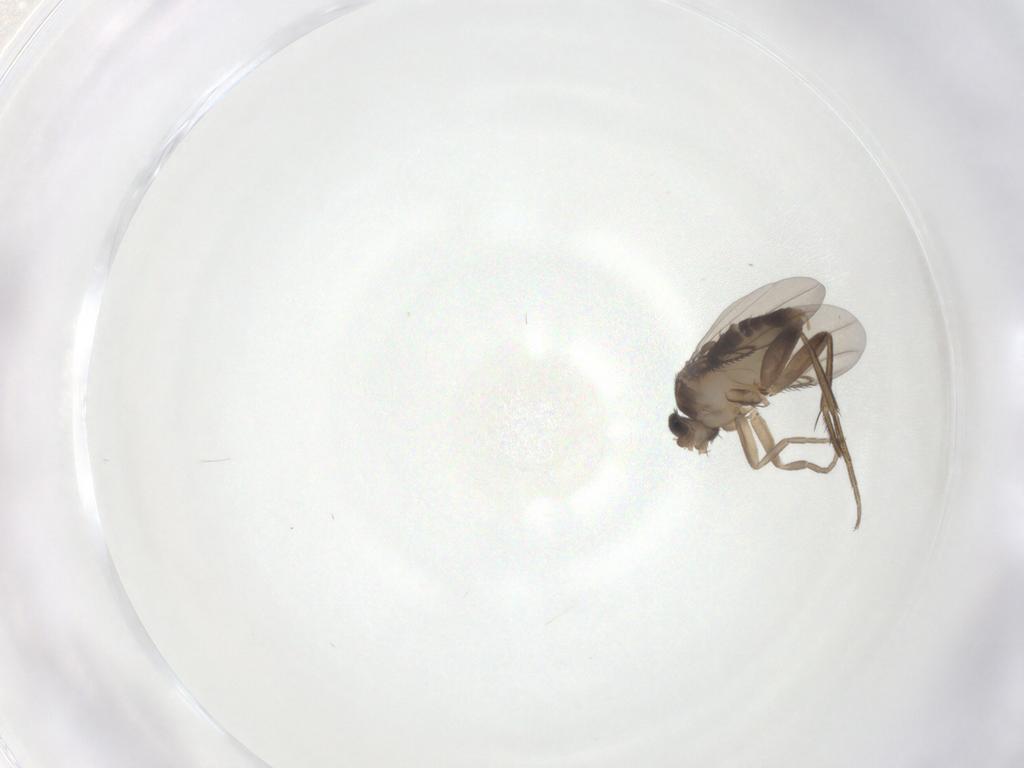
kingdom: Animalia
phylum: Arthropoda
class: Insecta
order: Diptera
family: Phoridae
